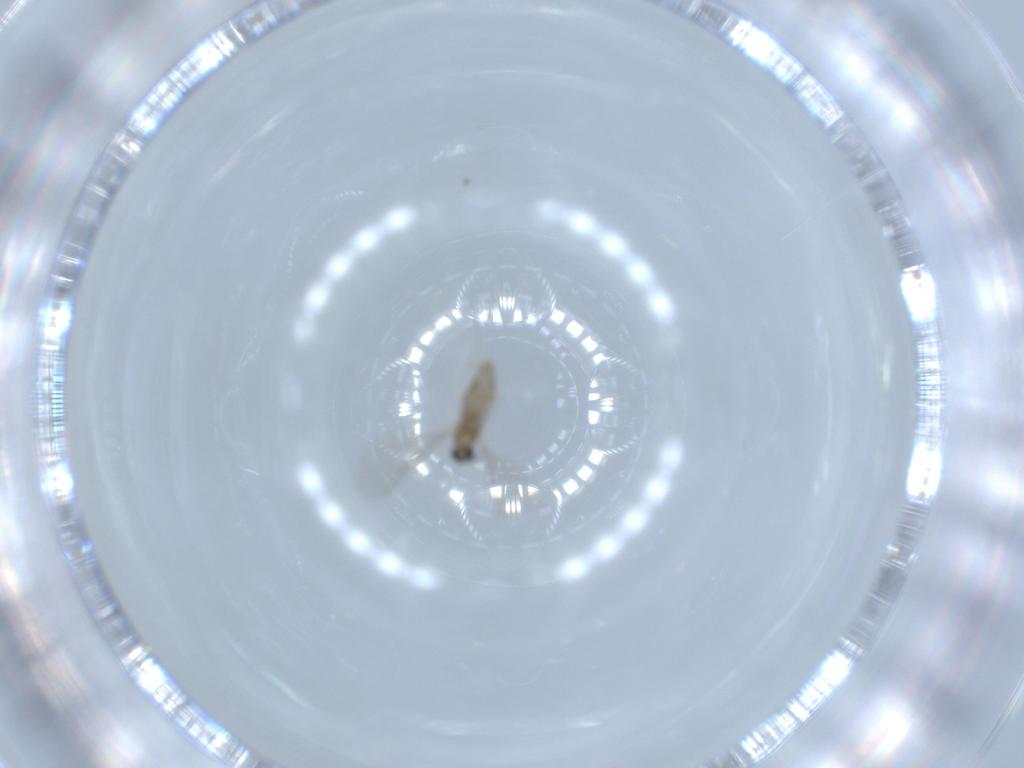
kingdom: Animalia
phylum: Arthropoda
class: Insecta
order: Diptera
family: Cecidomyiidae
